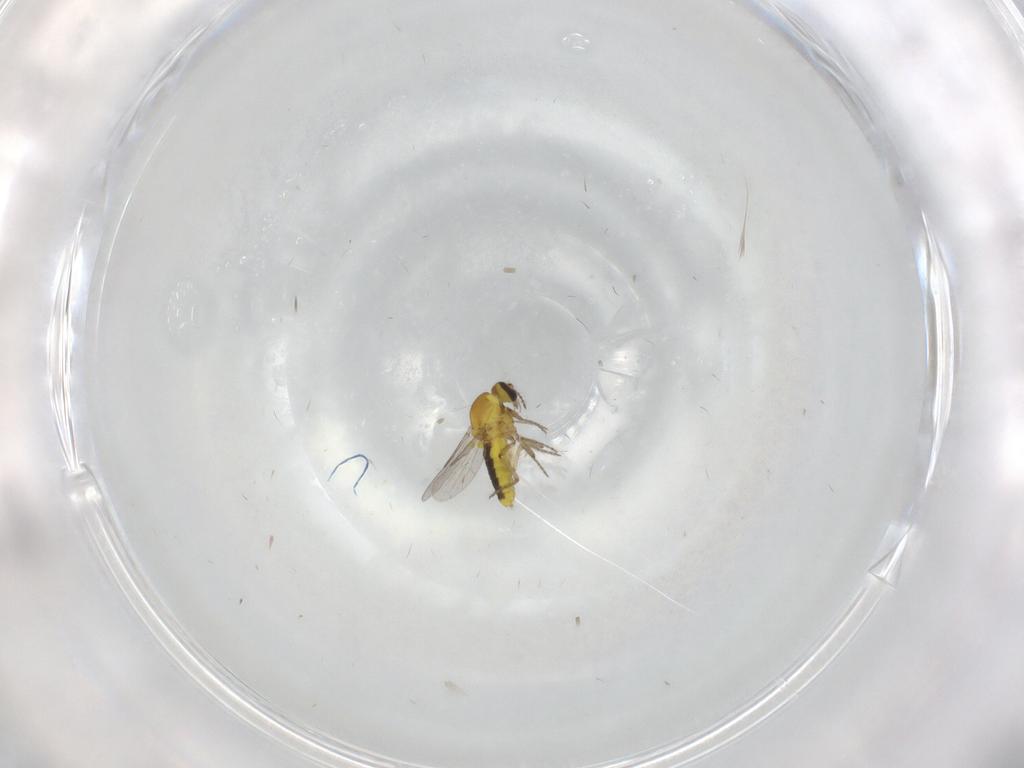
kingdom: Animalia
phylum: Arthropoda
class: Insecta
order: Diptera
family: Ceratopogonidae
